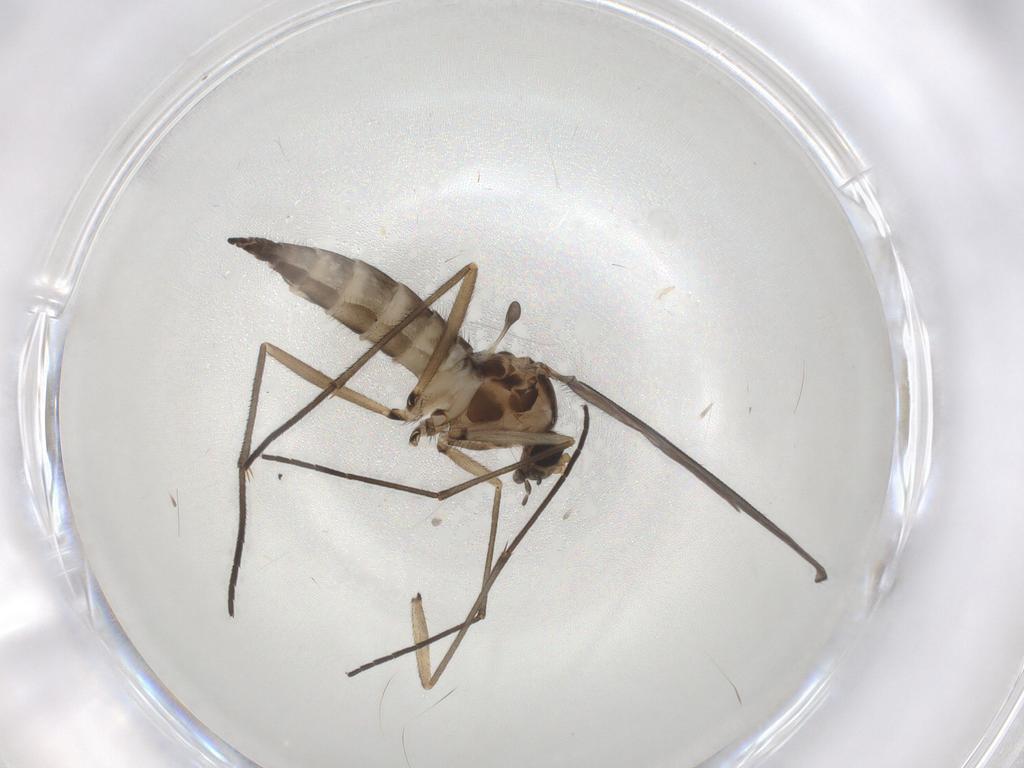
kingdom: Animalia
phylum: Arthropoda
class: Insecta
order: Diptera
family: Sciaridae
